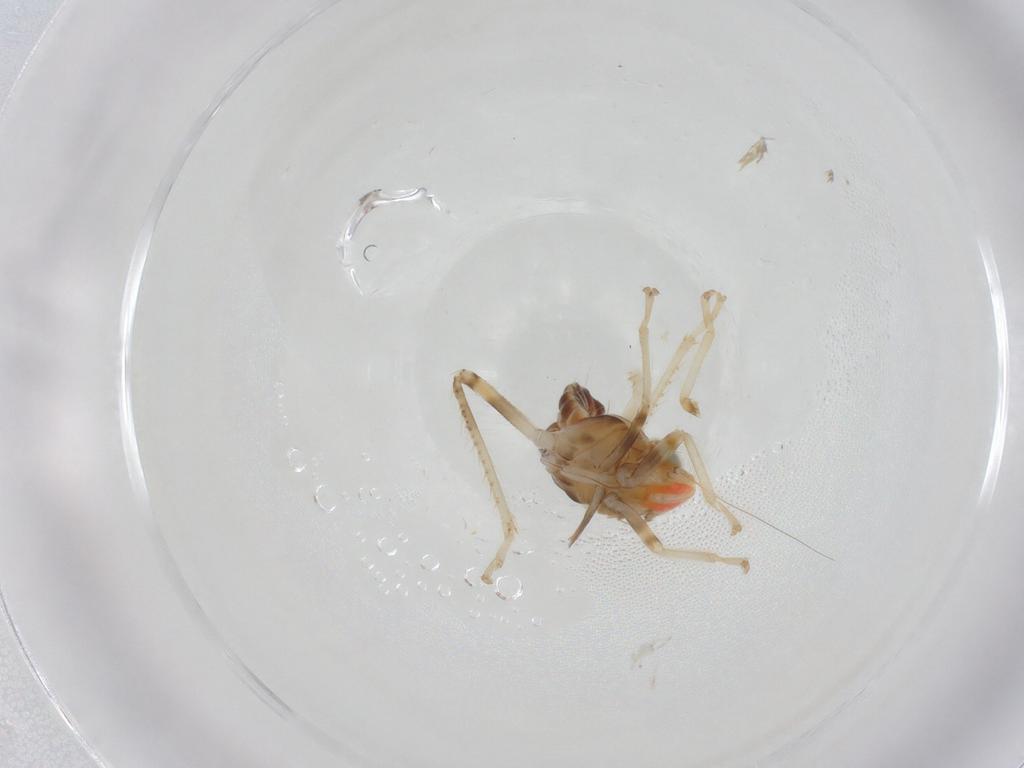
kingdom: Animalia
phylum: Arthropoda
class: Insecta
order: Hemiptera
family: Cicadellidae
